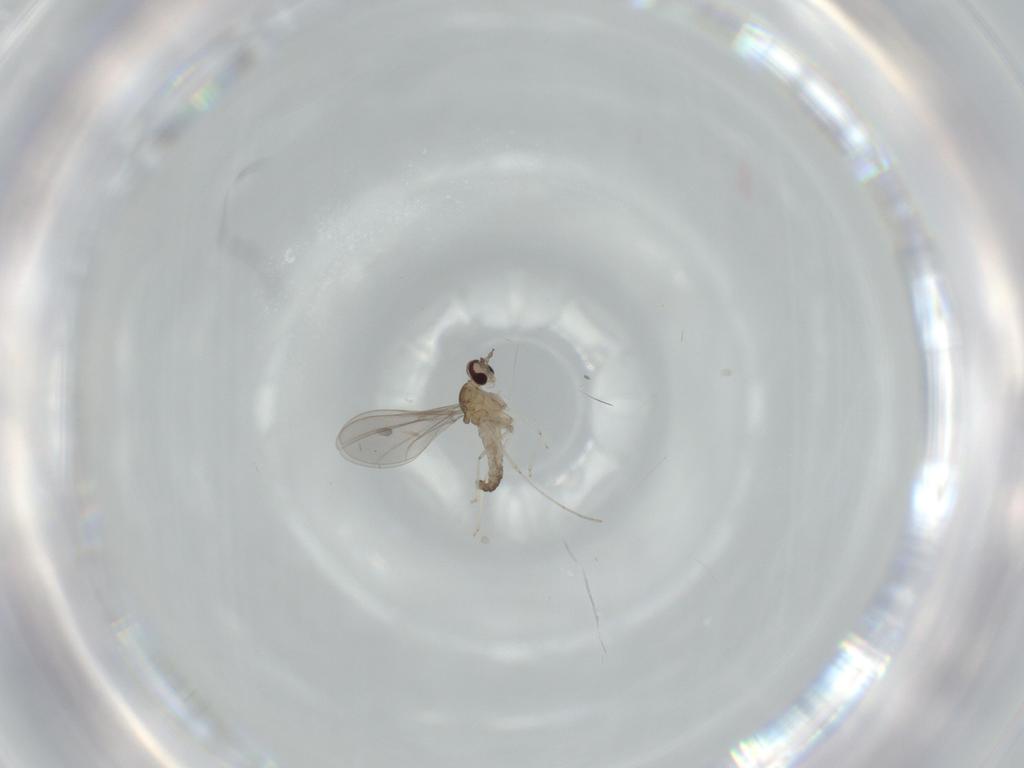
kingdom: Animalia
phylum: Arthropoda
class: Insecta
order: Diptera
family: Cecidomyiidae
